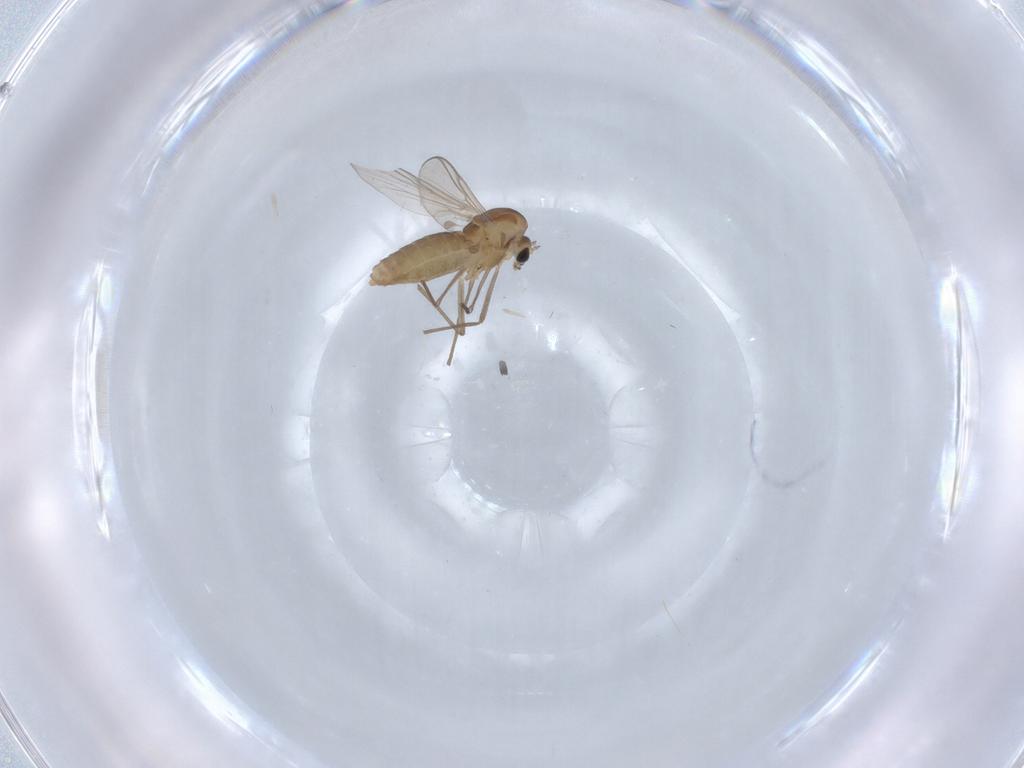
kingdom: Animalia
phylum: Arthropoda
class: Insecta
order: Diptera
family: Chironomidae
